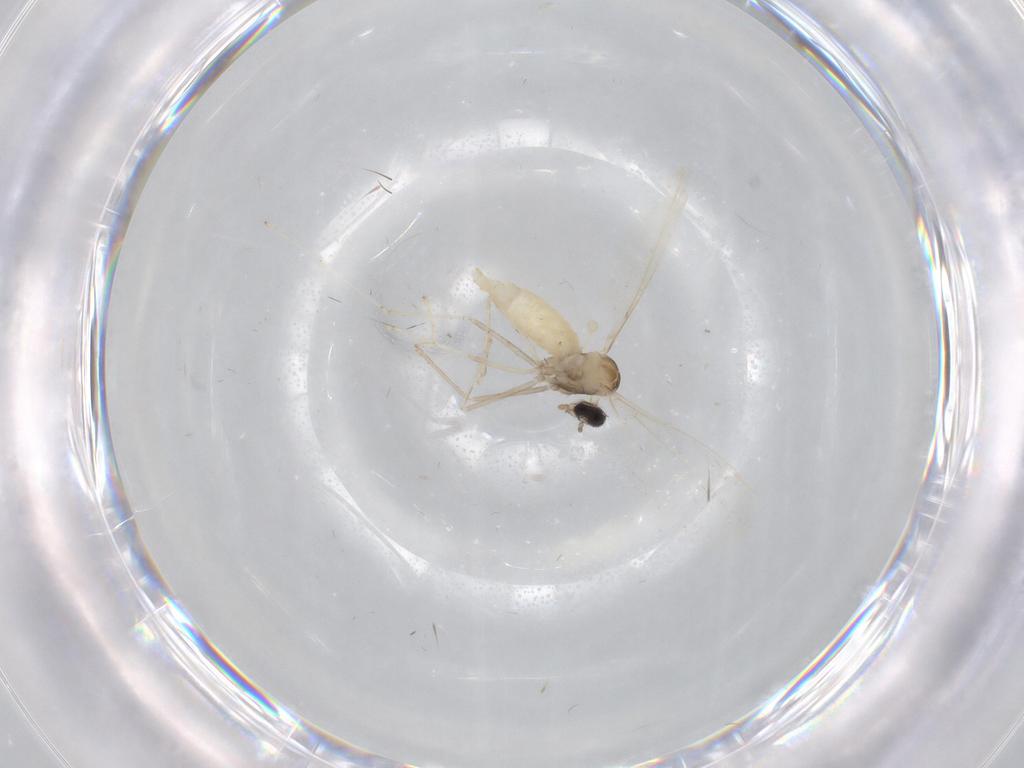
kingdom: Animalia
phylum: Arthropoda
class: Insecta
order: Diptera
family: Cecidomyiidae
